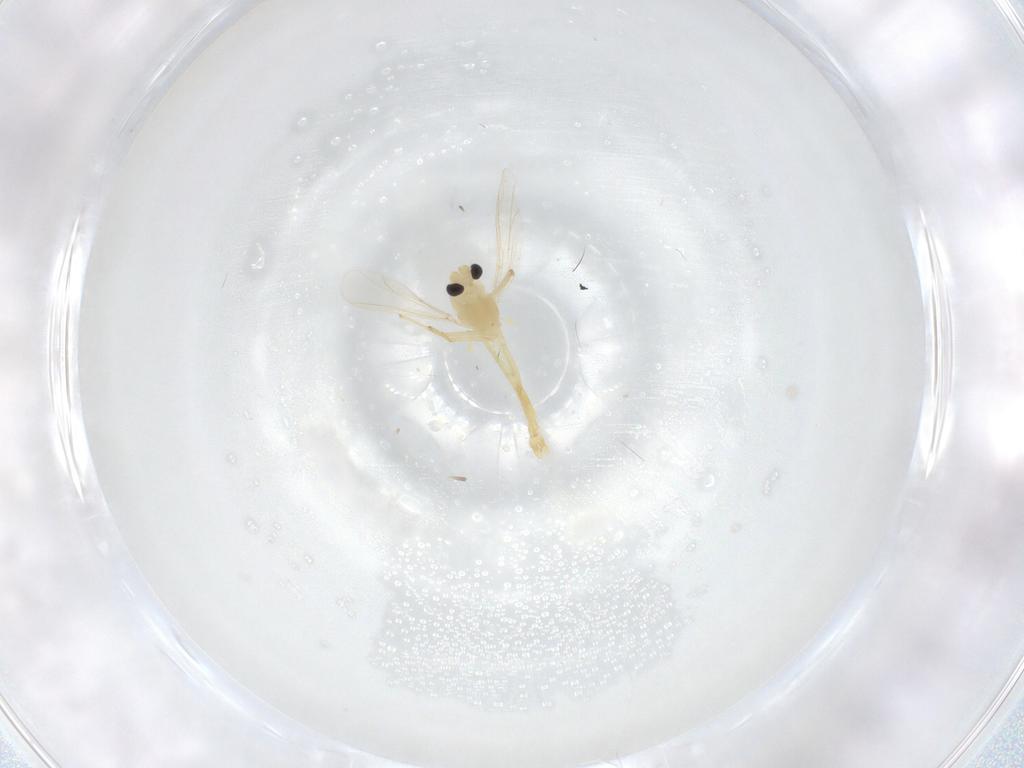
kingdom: Animalia
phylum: Arthropoda
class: Insecta
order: Diptera
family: Chironomidae
